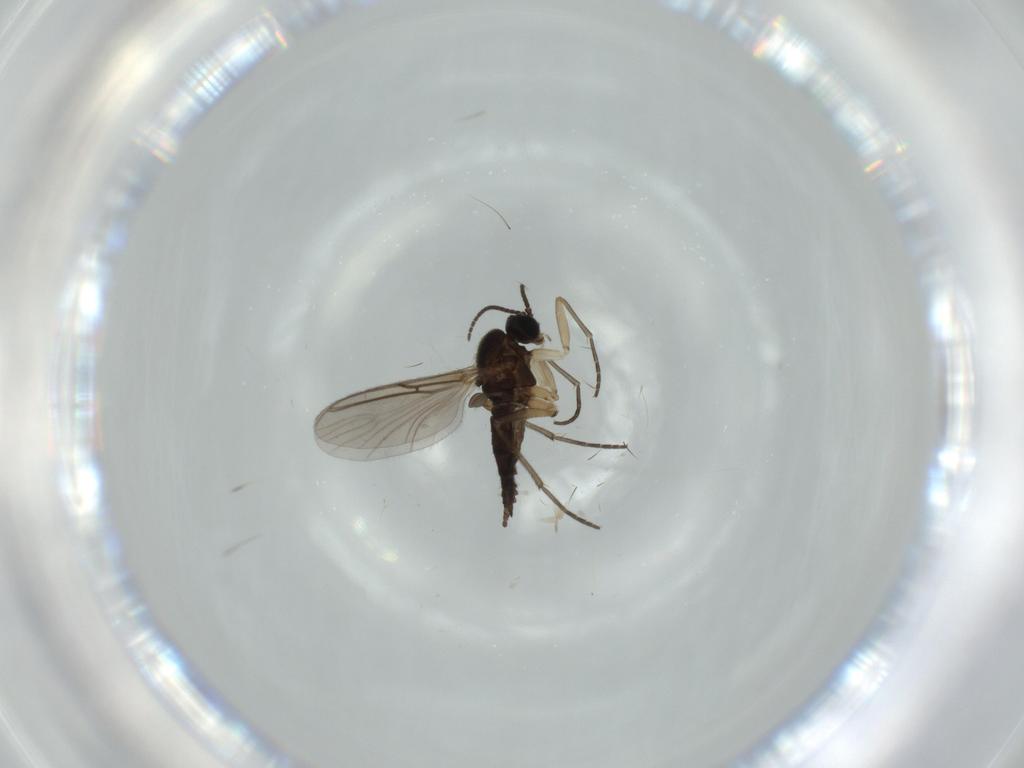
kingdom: Animalia
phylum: Arthropoda
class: Insecta
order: Diptera
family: Sciaridae
